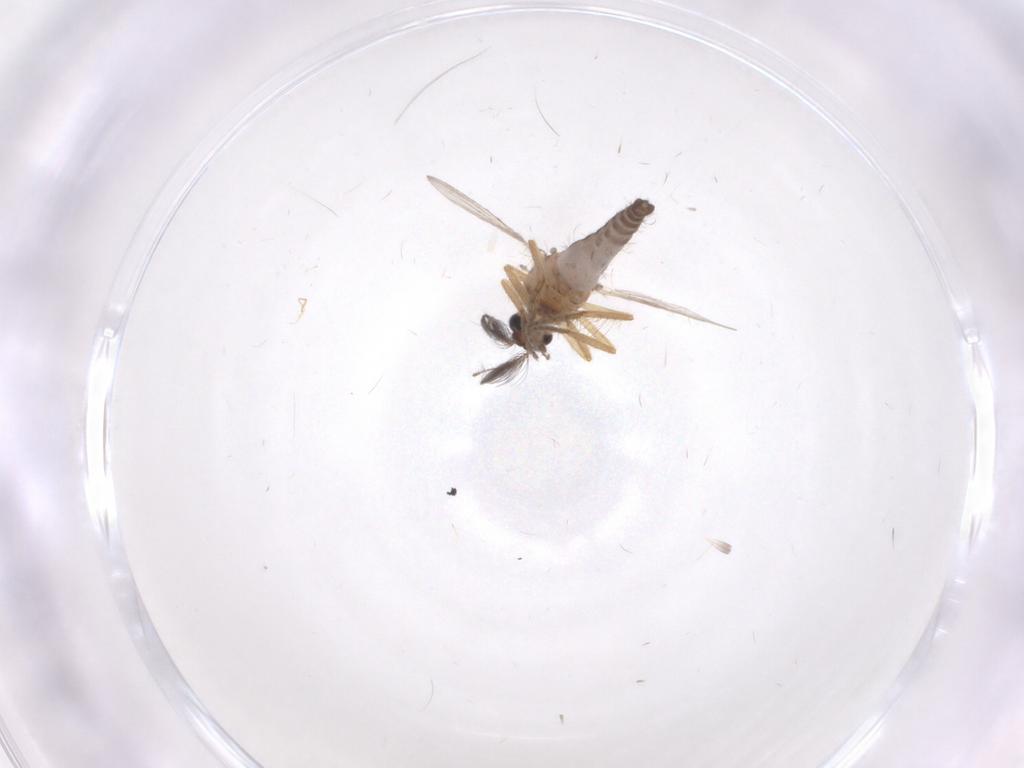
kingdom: Animalia
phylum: Arthropoda
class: Insecta
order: Diptera
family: Ceratopogonidae
